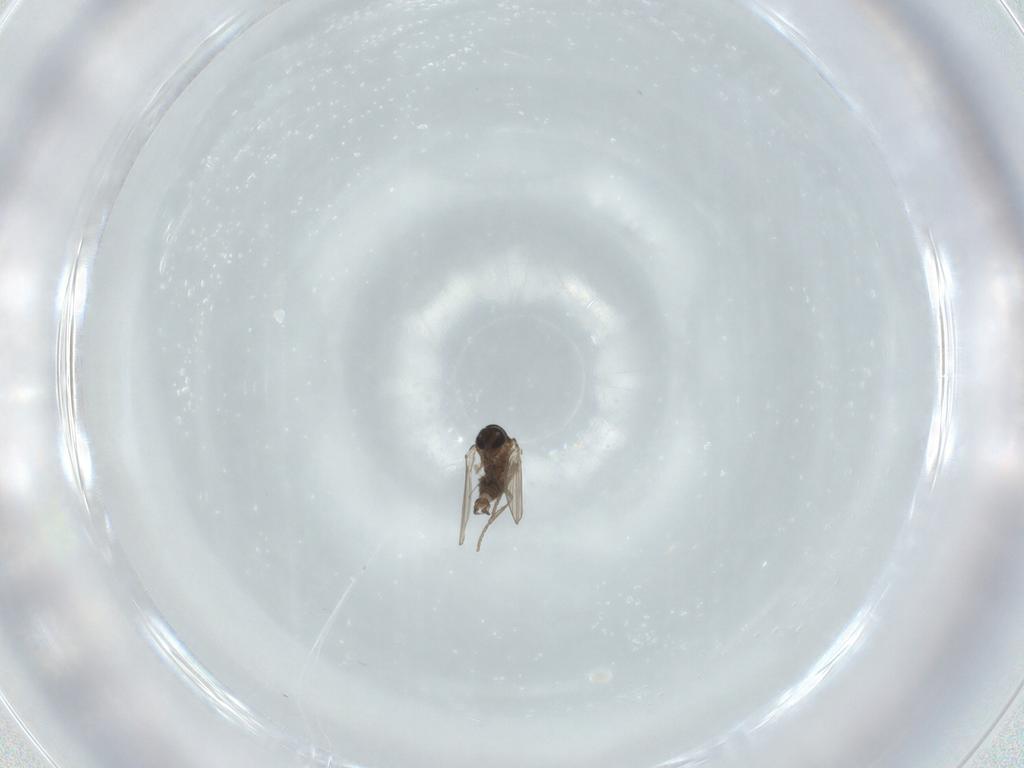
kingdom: Animalia
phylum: Arthropoda
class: Insecta
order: Diptera
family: Psychodidae
